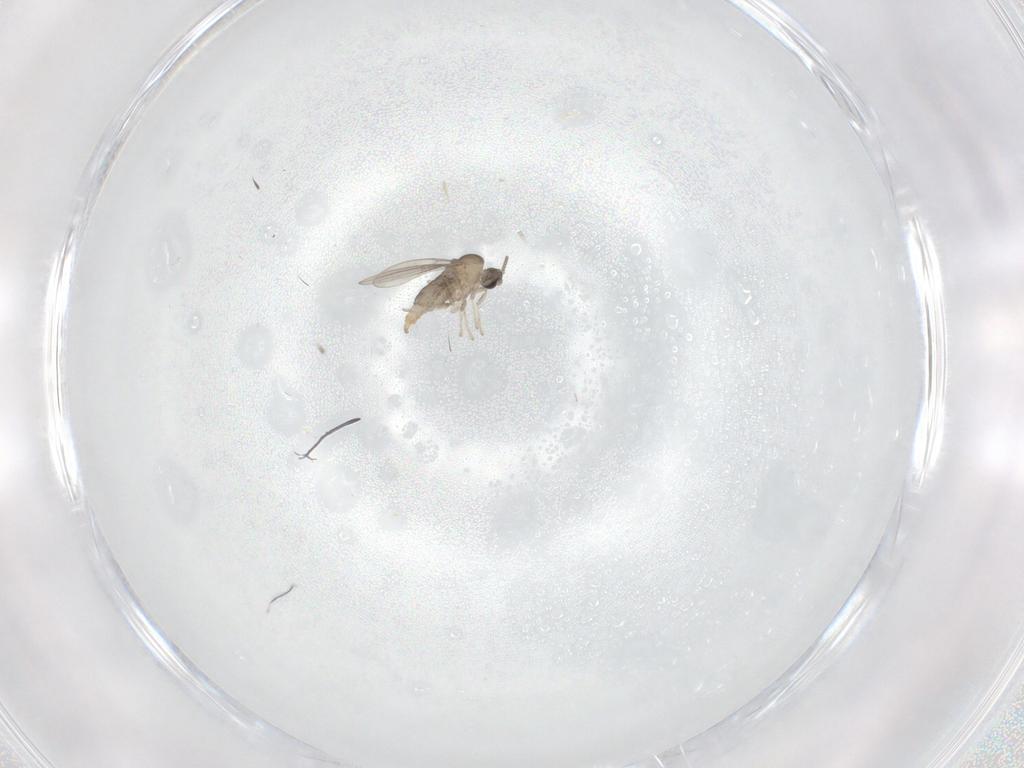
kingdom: Animalia
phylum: Arthropoda
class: Insecta
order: Diptera
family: Cecidomyiidae
